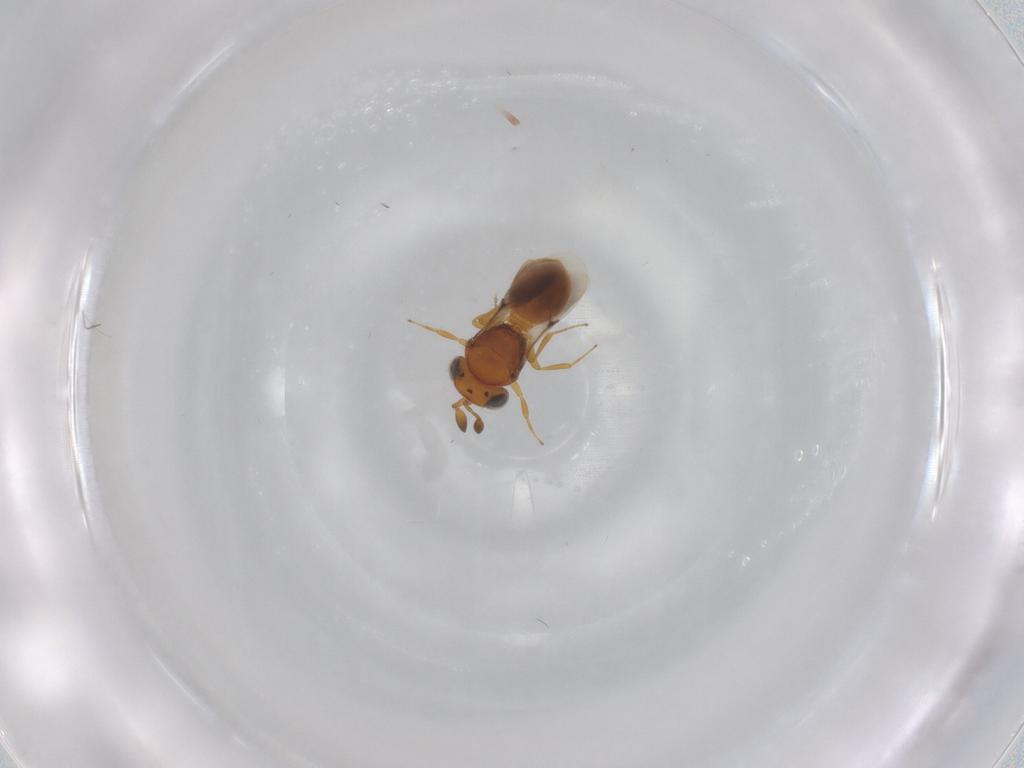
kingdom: Animalia
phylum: Arthropoda
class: Insecta
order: Hymenoptera
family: Scelionidae
